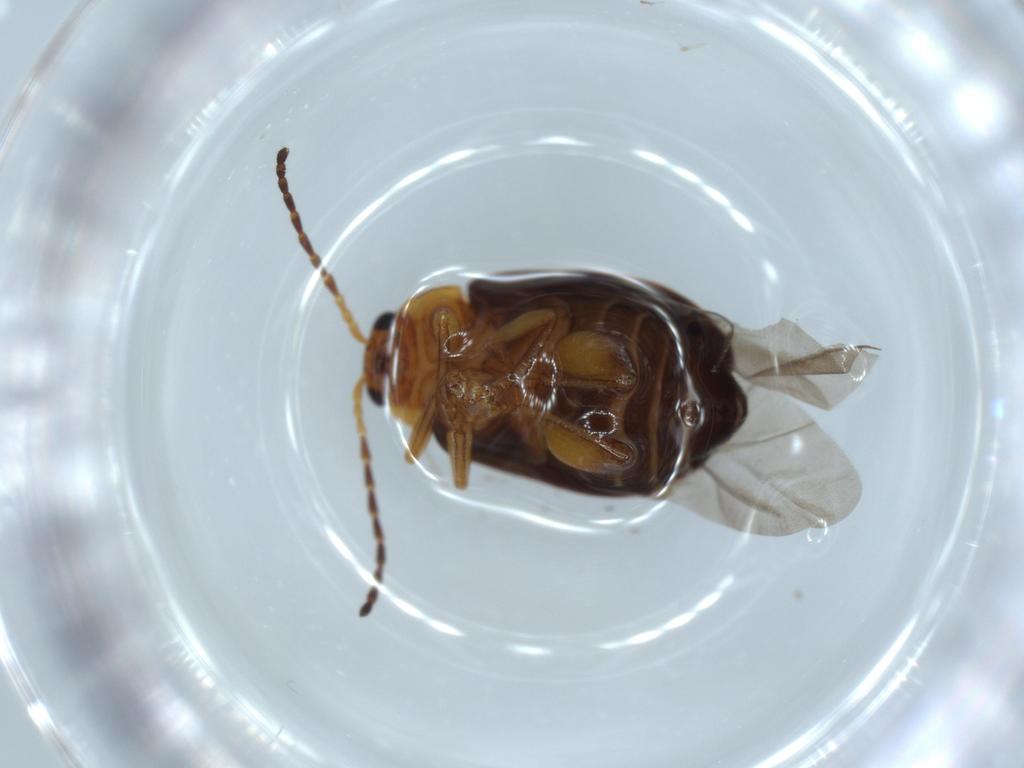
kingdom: Animalia
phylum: Arthropoda
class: Insecta
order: Coleoptera
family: Chrysomelidae
